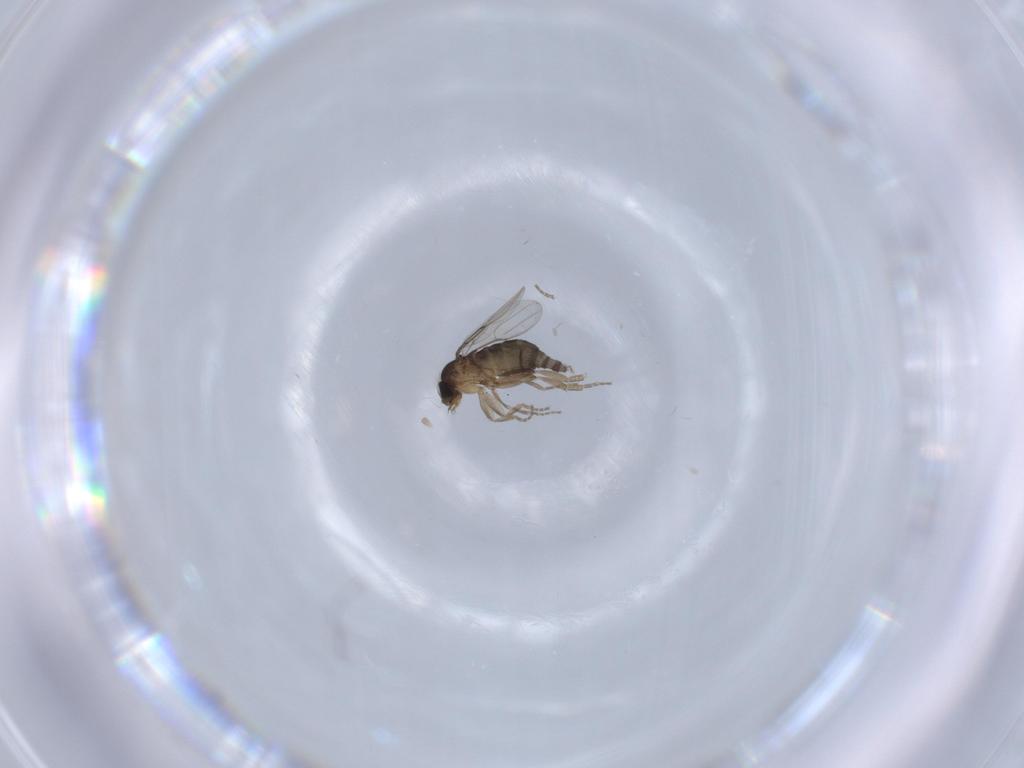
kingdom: Animalia
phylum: Arthropoda
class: Insecta
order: Diptera
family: Phoridae
